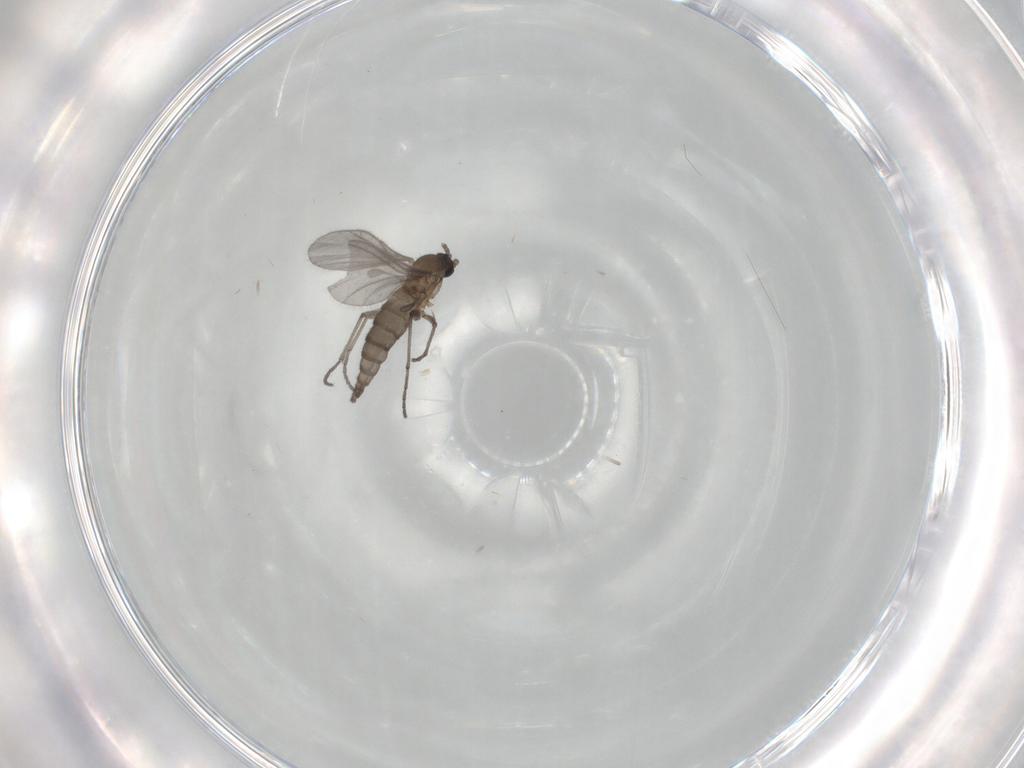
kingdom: Animalia
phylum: Arthropoda
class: Insecta
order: Diptera
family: Sciaridae
